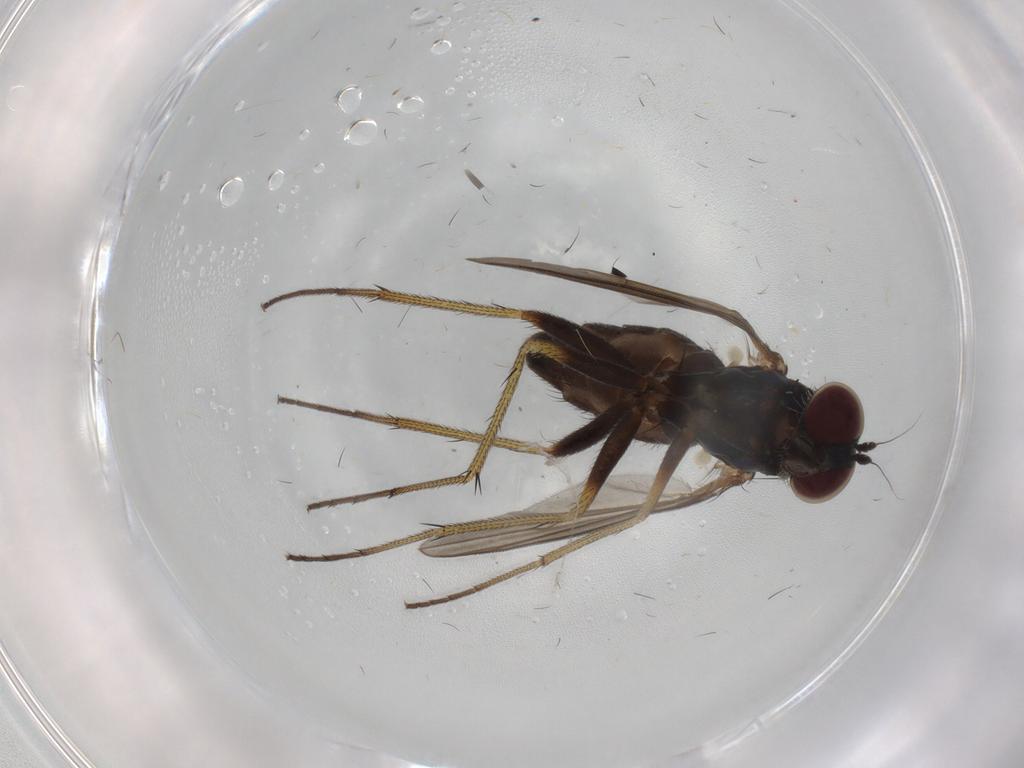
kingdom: Animalia
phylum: Arthropoda
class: Insecta
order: Diptera
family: Dolichopodidae
